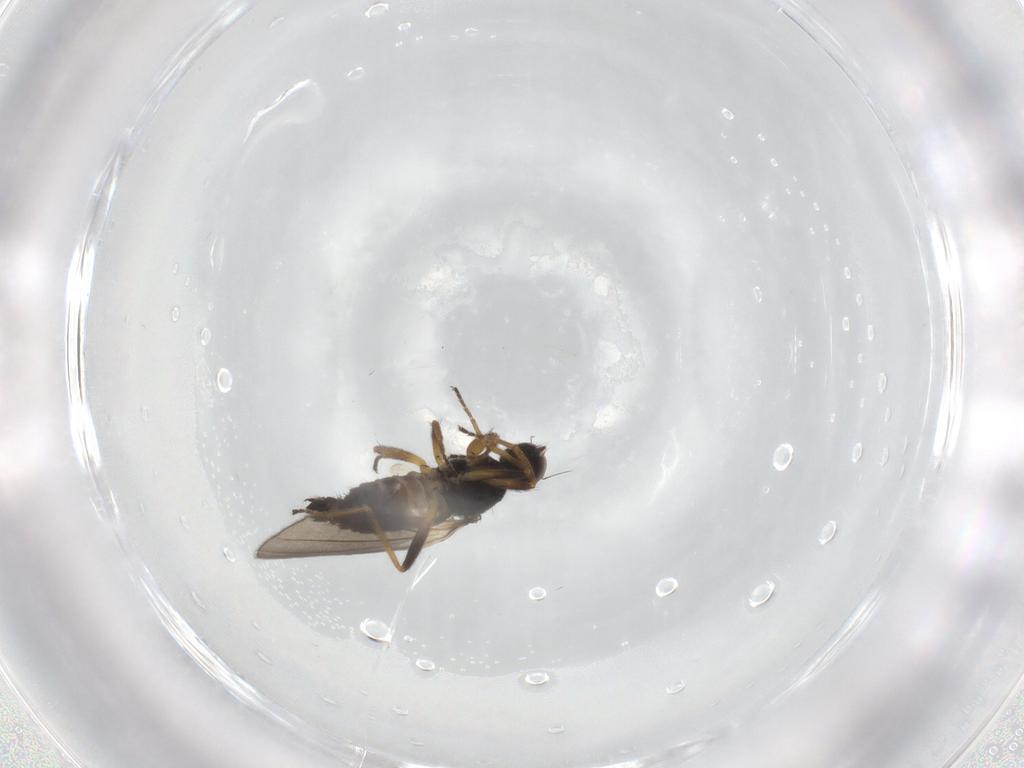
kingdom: Animalia
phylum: Arthropoda
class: Insecta
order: Diptera
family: Hybotidae
